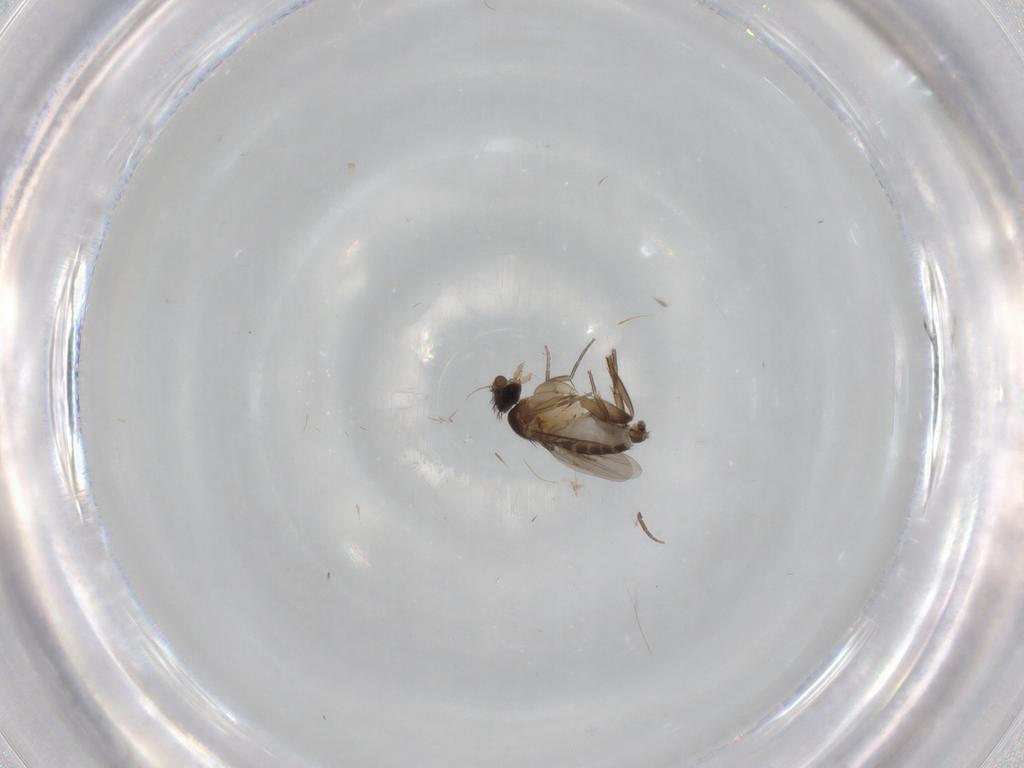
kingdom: Animalia
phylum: Arthropoda
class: Insecta
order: Diptera
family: Phoridae
